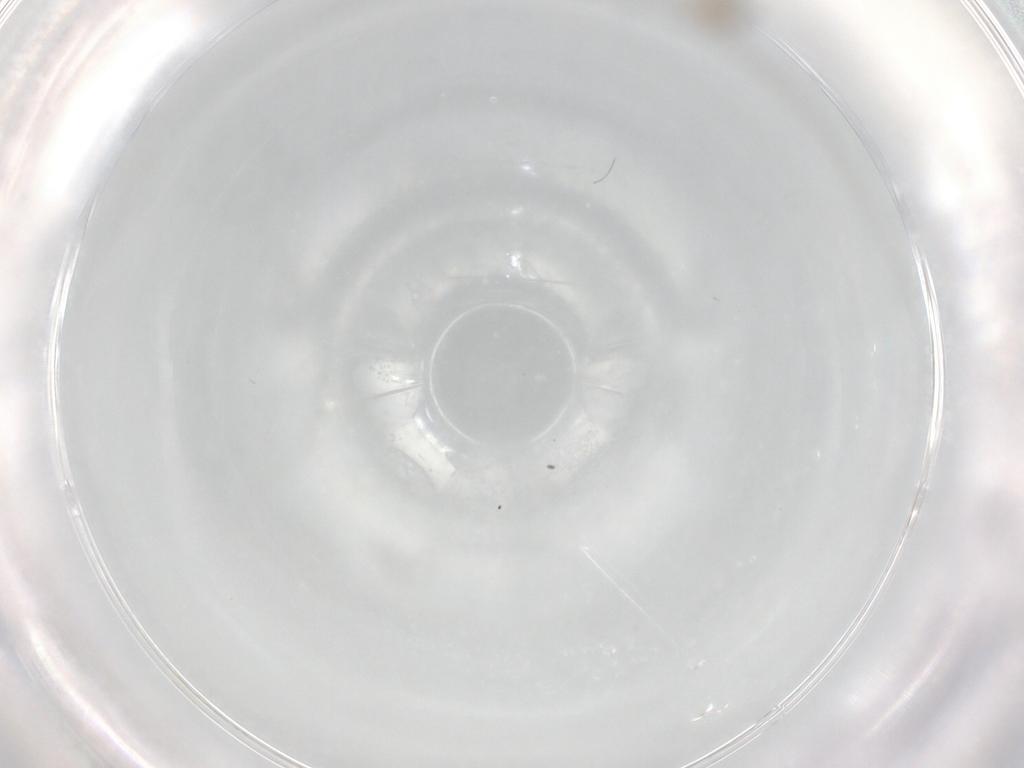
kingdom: Animalia
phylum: Arthropoda
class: Insecta
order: Diptera
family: Cecidomyiidae
